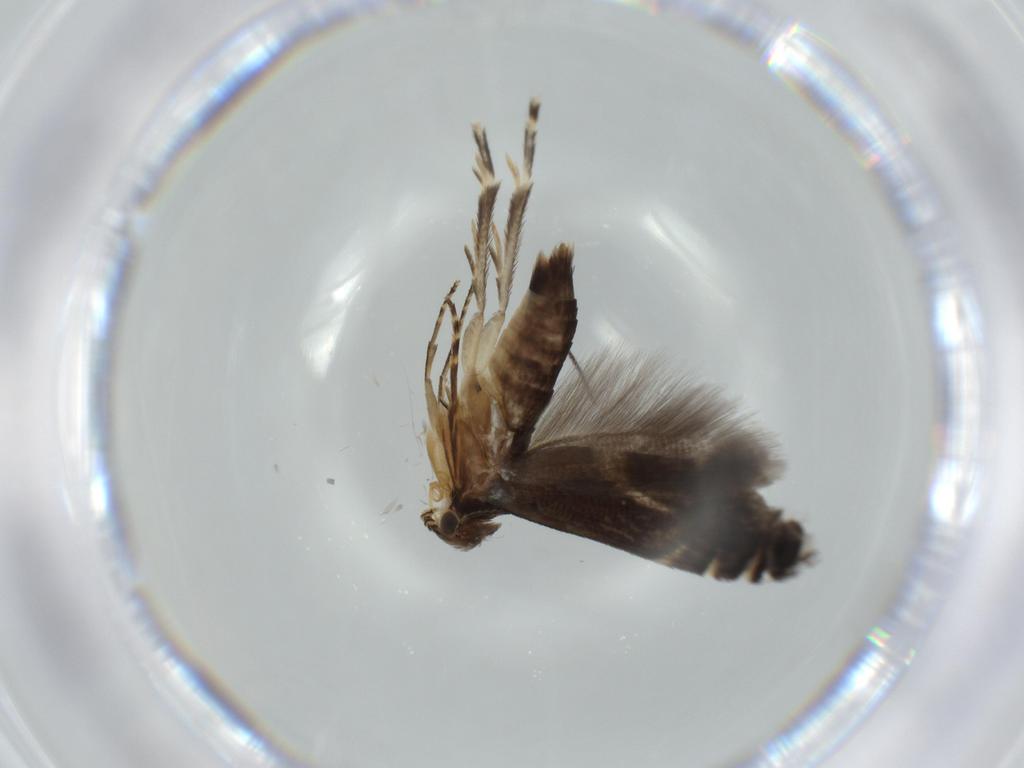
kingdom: Animalia
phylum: Arthropoda
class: Insecta
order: Lepidoptera
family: Glyphipterigidae
